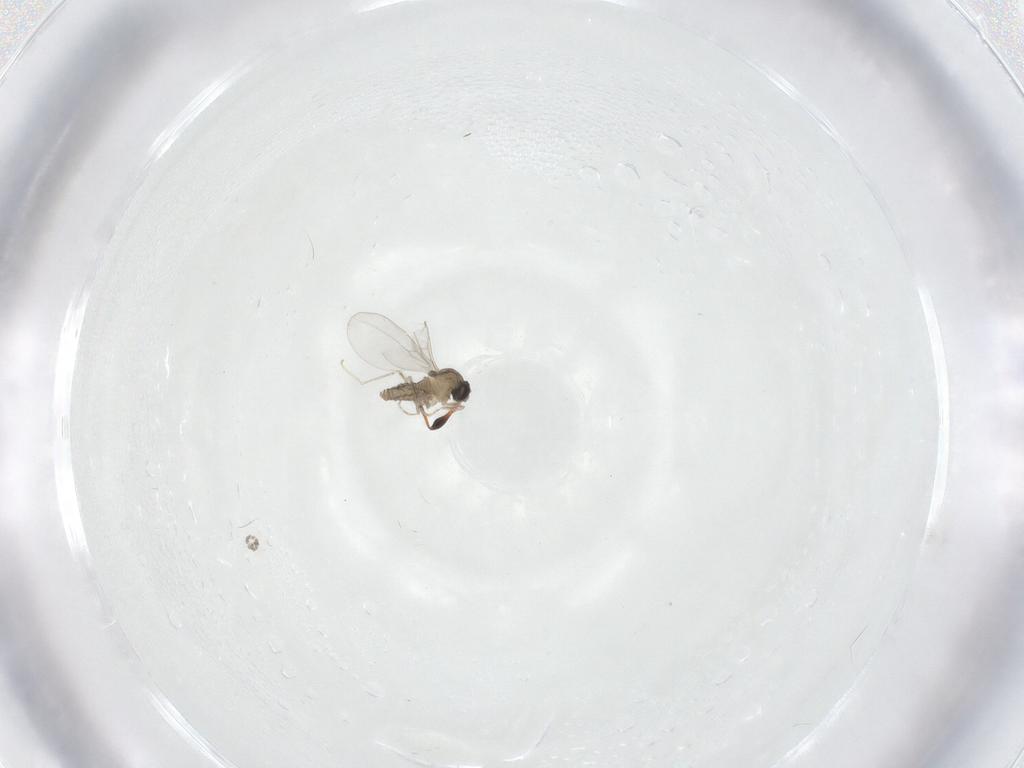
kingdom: Animalia
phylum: Arthropoda
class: Insecta
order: Diptera
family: Cecidomyiidae
